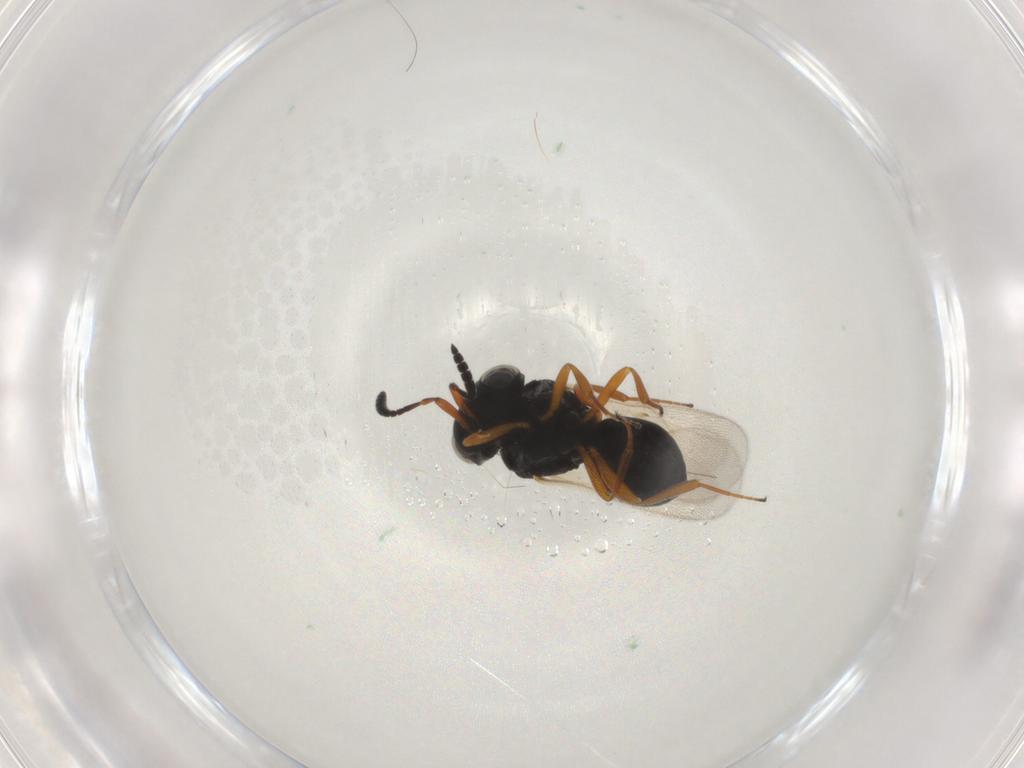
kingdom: Animalia
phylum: Arthropoda
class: Insecta
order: Hymenoptera
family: Scelionidae
